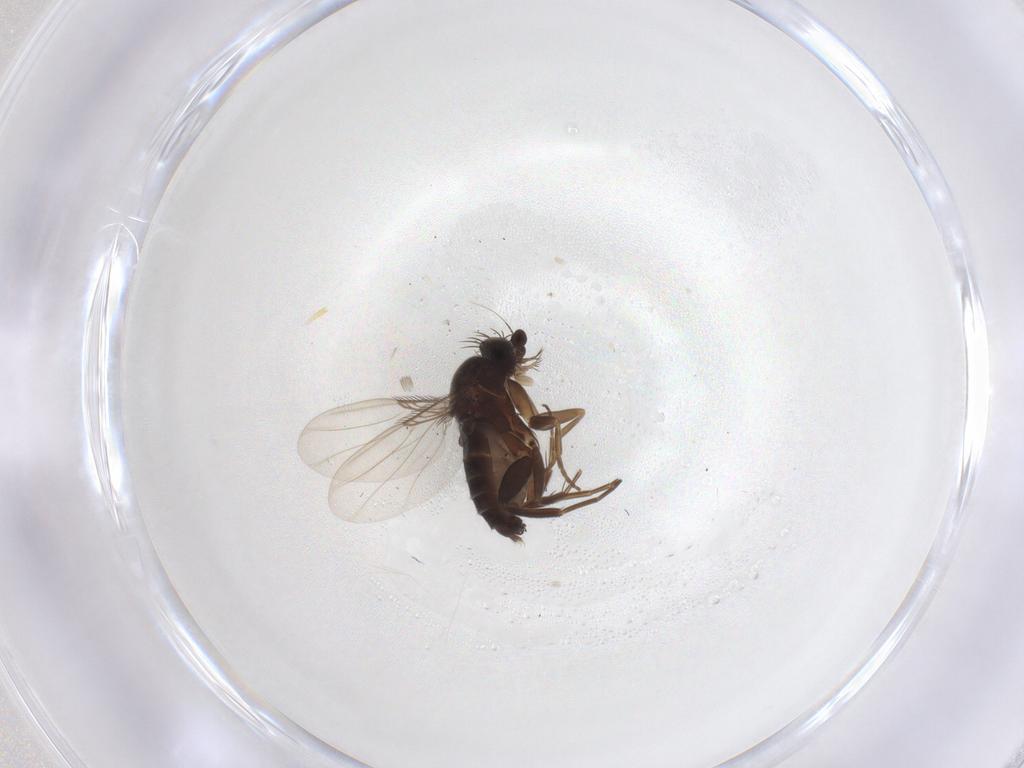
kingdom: Animalia
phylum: Arthropoda
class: Insecta
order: Diptera
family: Phoridae
